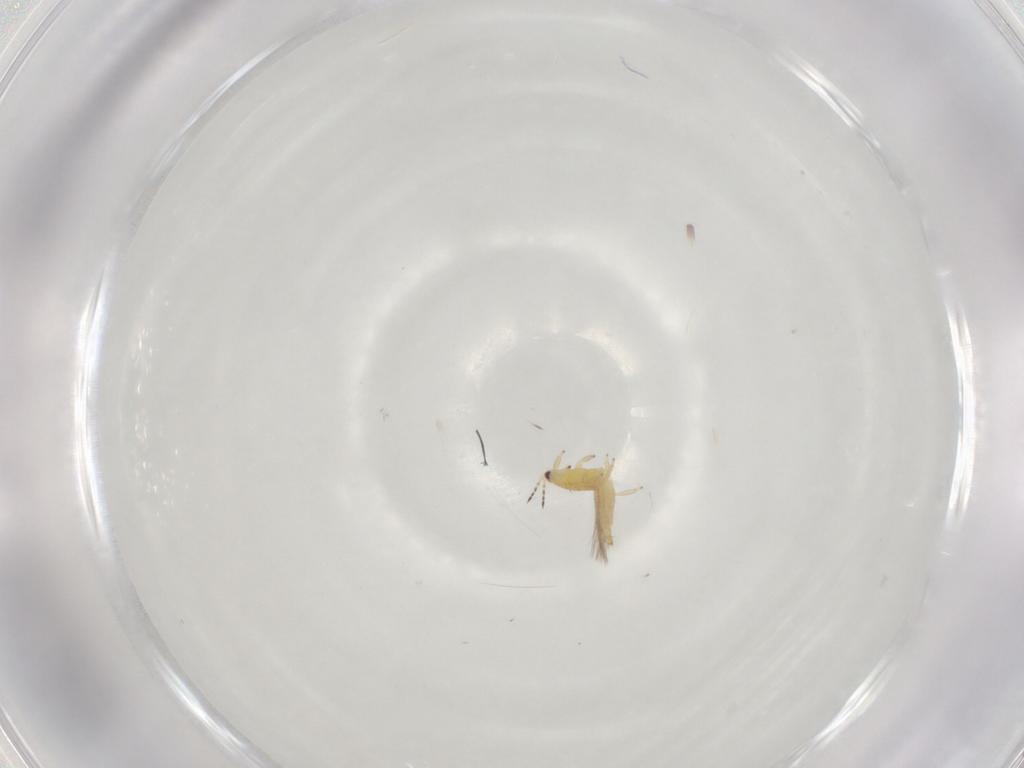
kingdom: Animalia
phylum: Arthropoda
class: Insecta
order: Thysanoptera
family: Thripidae
